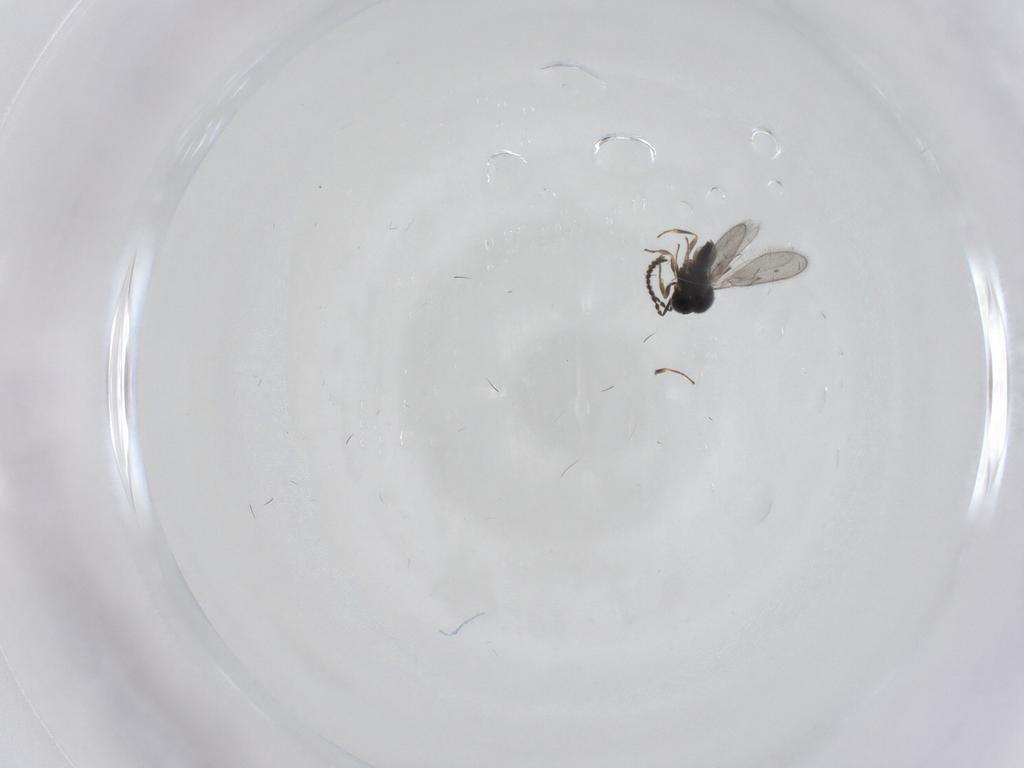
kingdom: Animalia
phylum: Arthropoda
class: Insecta
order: Hymenoptera
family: Scelionidae
